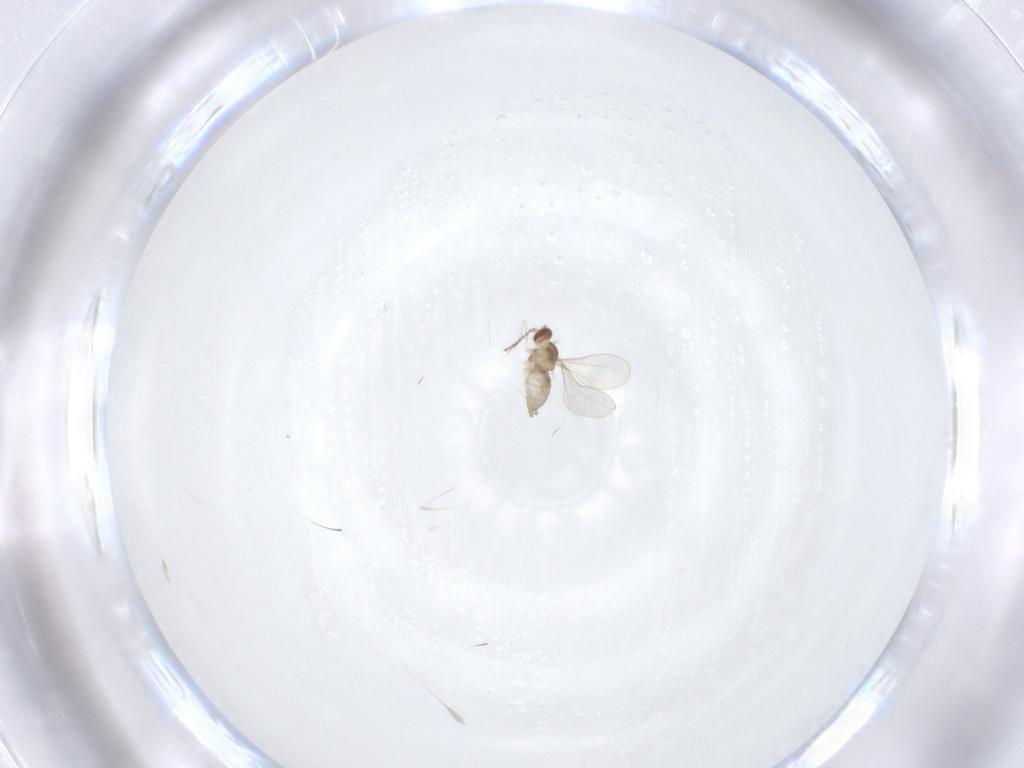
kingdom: Animalia
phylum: Arthropoda
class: Insecta
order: Diptera
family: Cecidomyiidae
